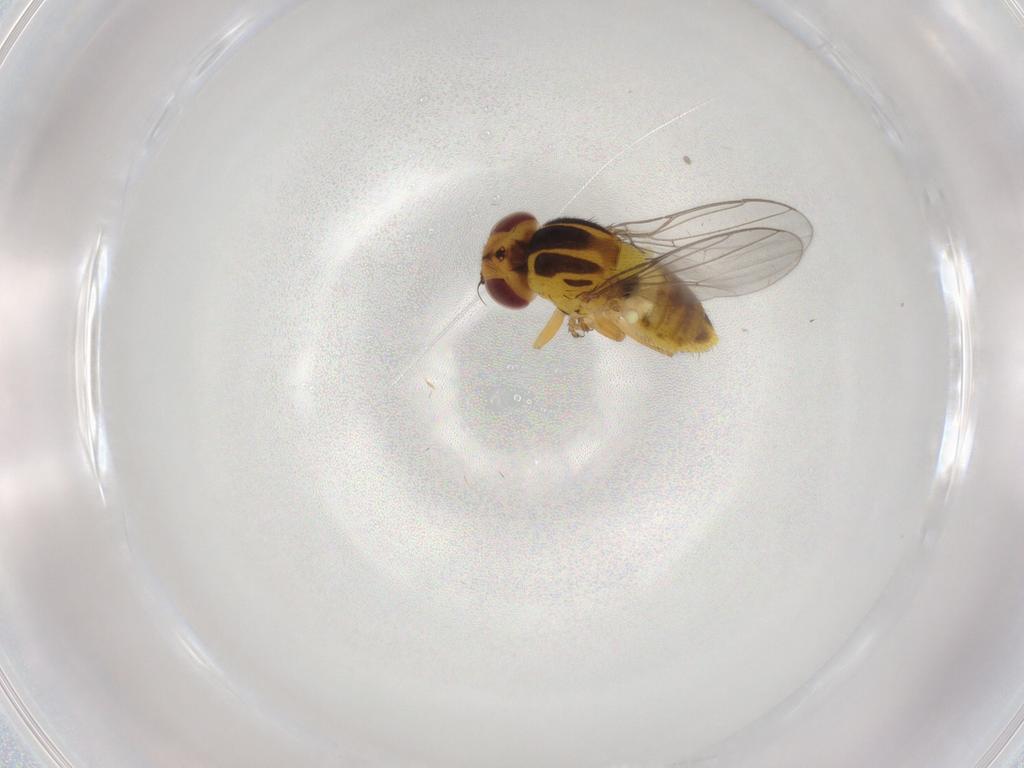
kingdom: Animalia
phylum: Arthropoda
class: Insecta
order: Diptera
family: Chloropidae
